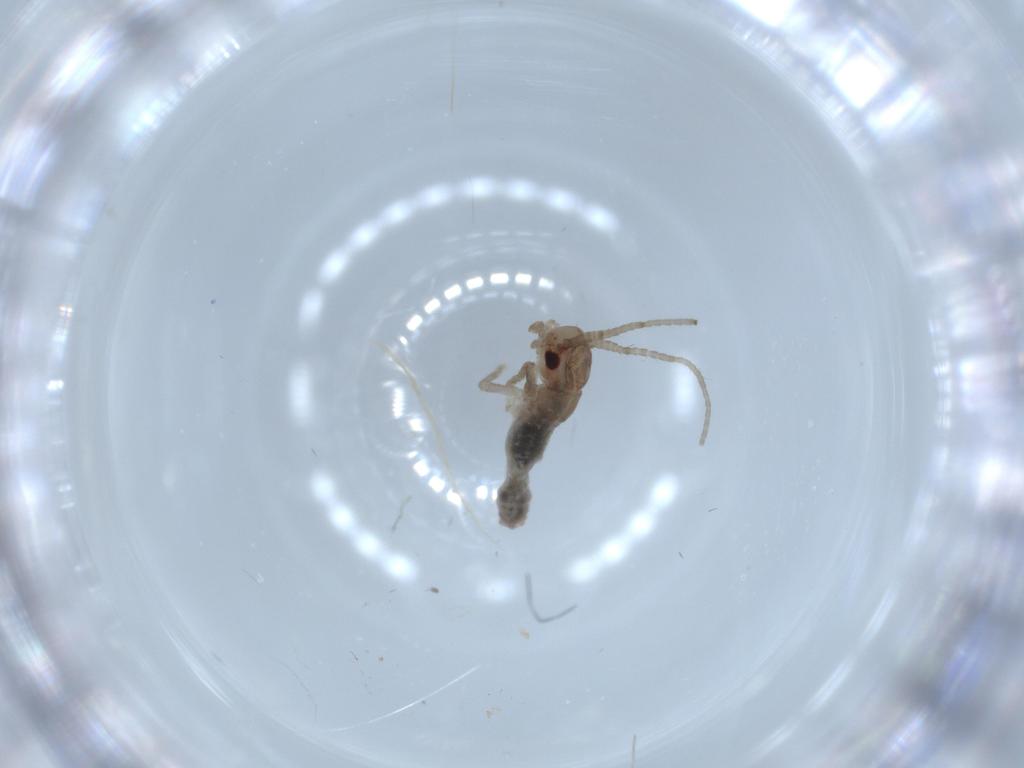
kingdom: Animalia
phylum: Arthropoda
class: Insecta
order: Orthoptera
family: Mogoplistidae
